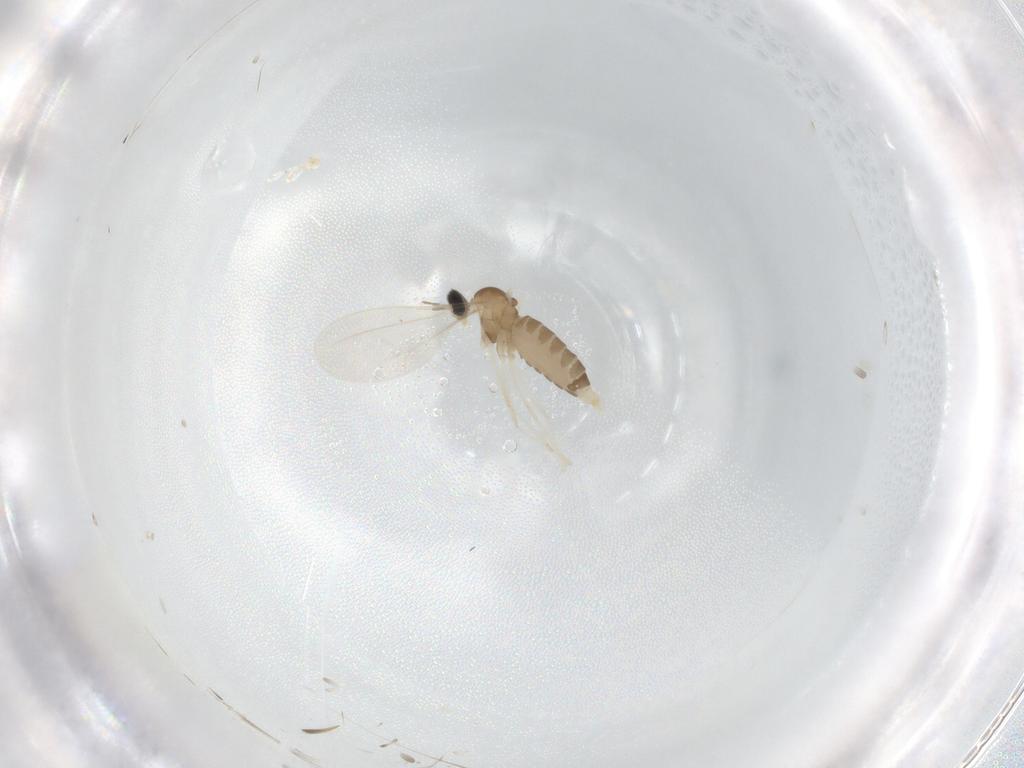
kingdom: Animalia
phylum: Arthropoda
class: Insecta
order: Diptera
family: Cecidomyiidae
